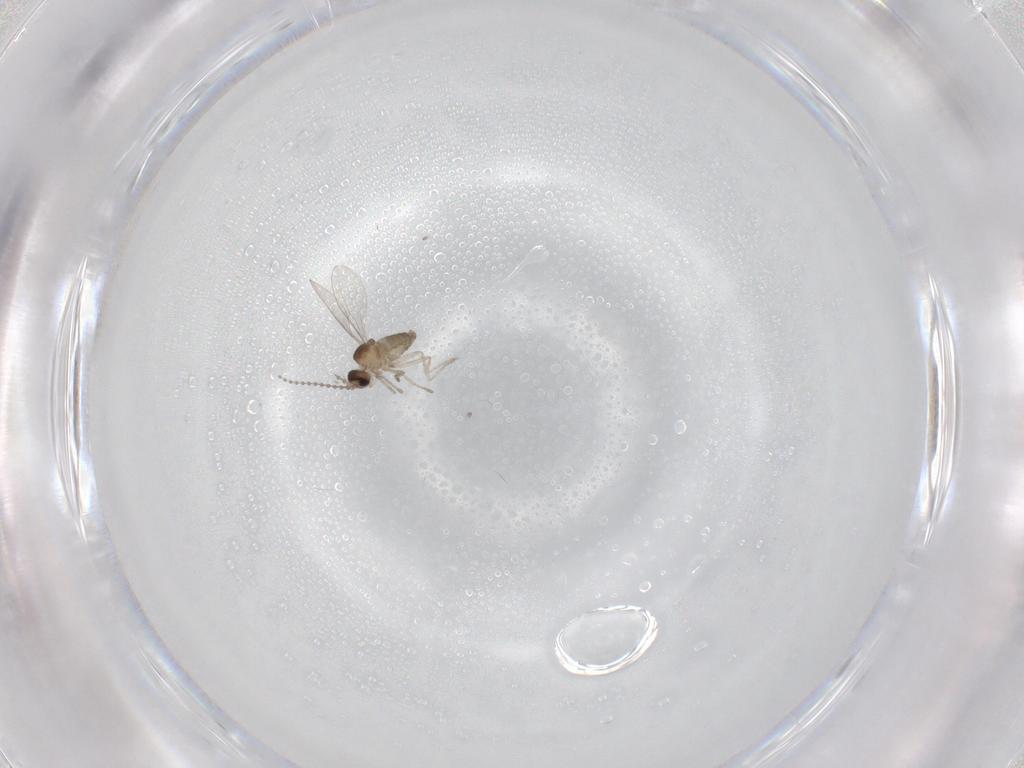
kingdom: Animalia
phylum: Arthropoda
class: Insecta
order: Diptera
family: Cecidomyiidae
